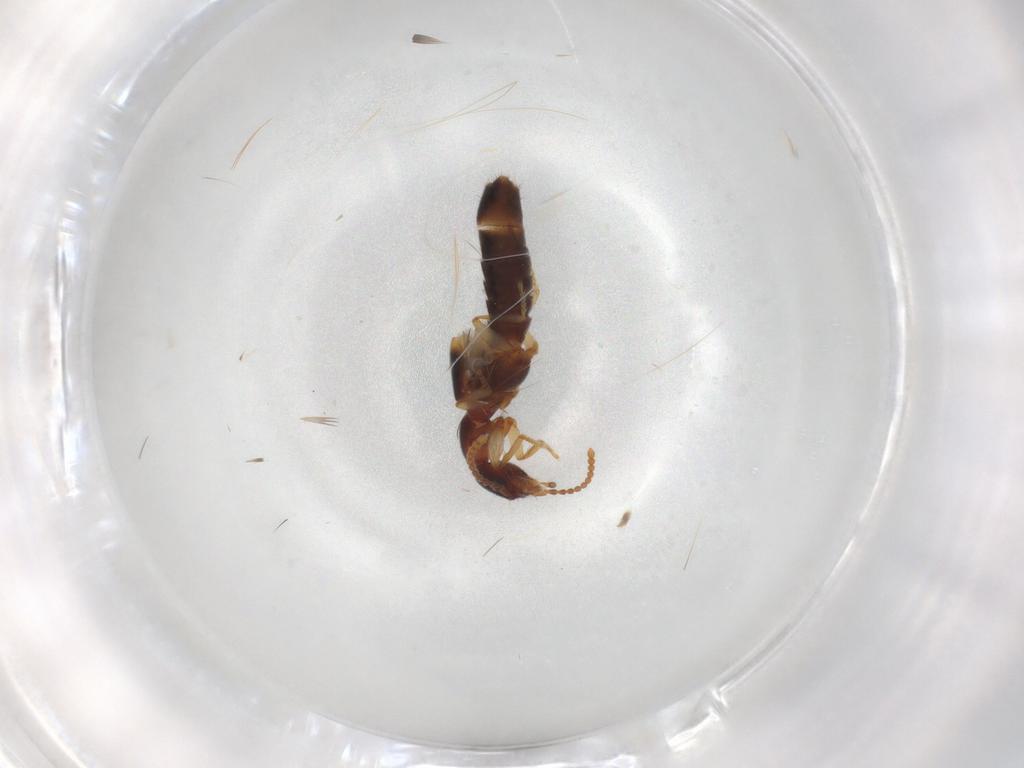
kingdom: Animalia
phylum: Arthropoda
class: Insecta
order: Coleoptera
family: Staphylinidae
